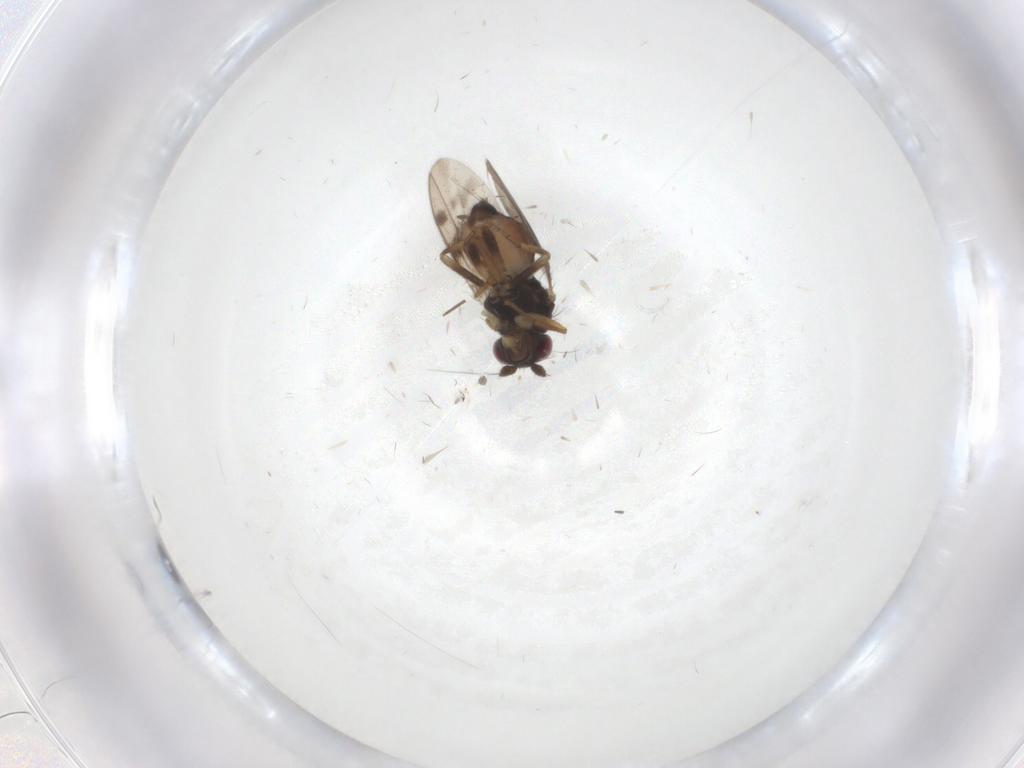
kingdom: Animalia
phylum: Arthropoda
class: Insecta
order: Diptera
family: Sphaeroceridae
